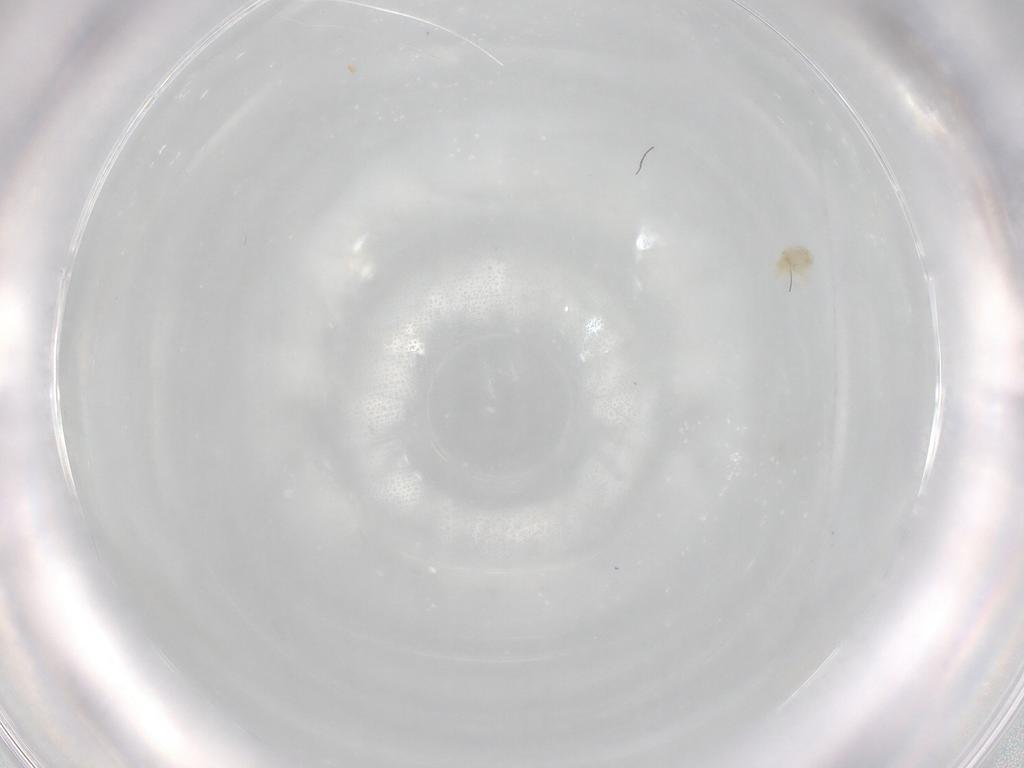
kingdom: Animalia
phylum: Arthropoda
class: Arachnida
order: Trombidiformes
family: Eupodidae
